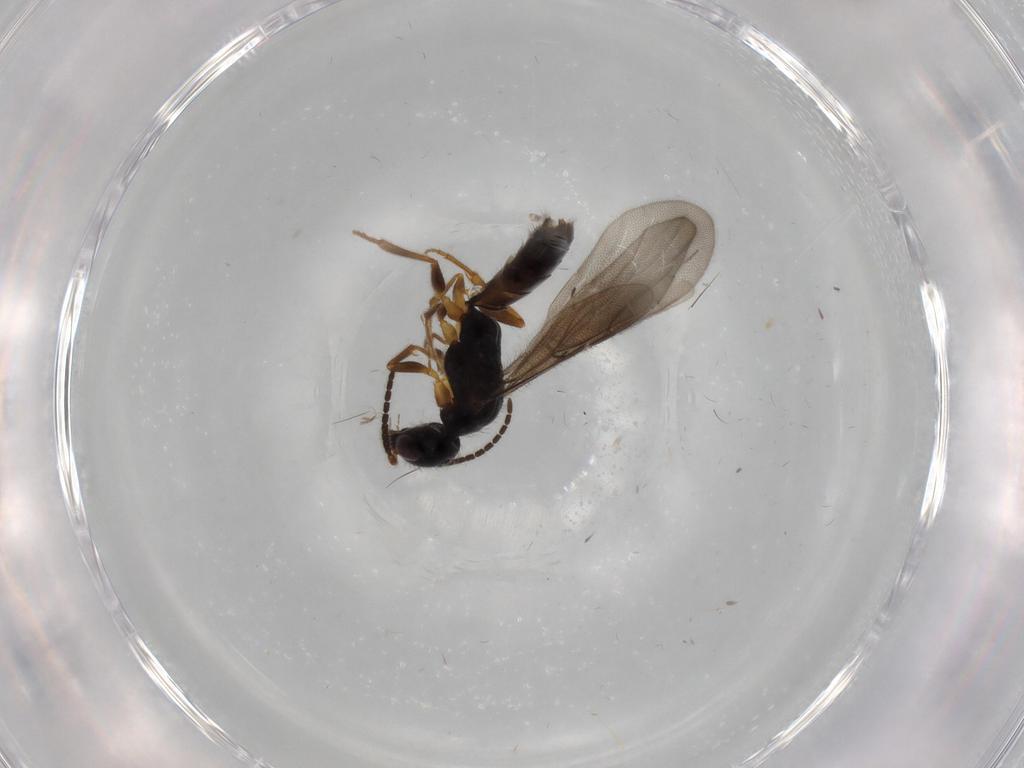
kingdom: Animalia
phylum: Arthropoda
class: Insecta
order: Hymenoptera
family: Bethylidae
